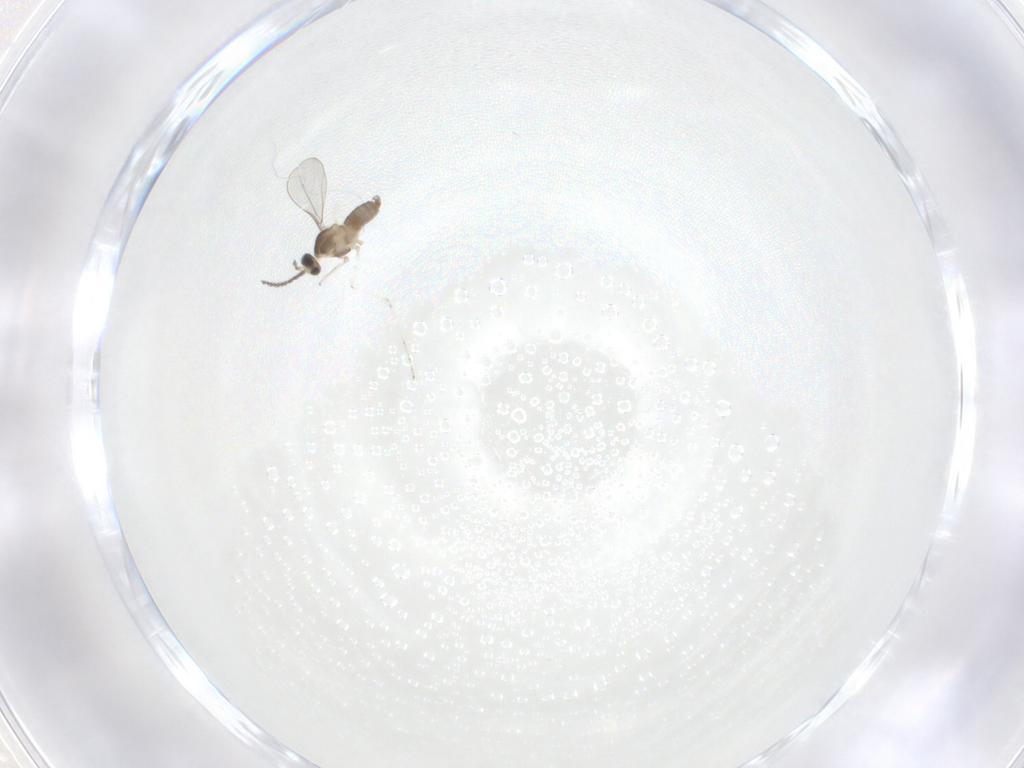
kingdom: Animalia
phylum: Arthropoda
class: Insecta
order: Diptera
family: Cecidomyiidae
